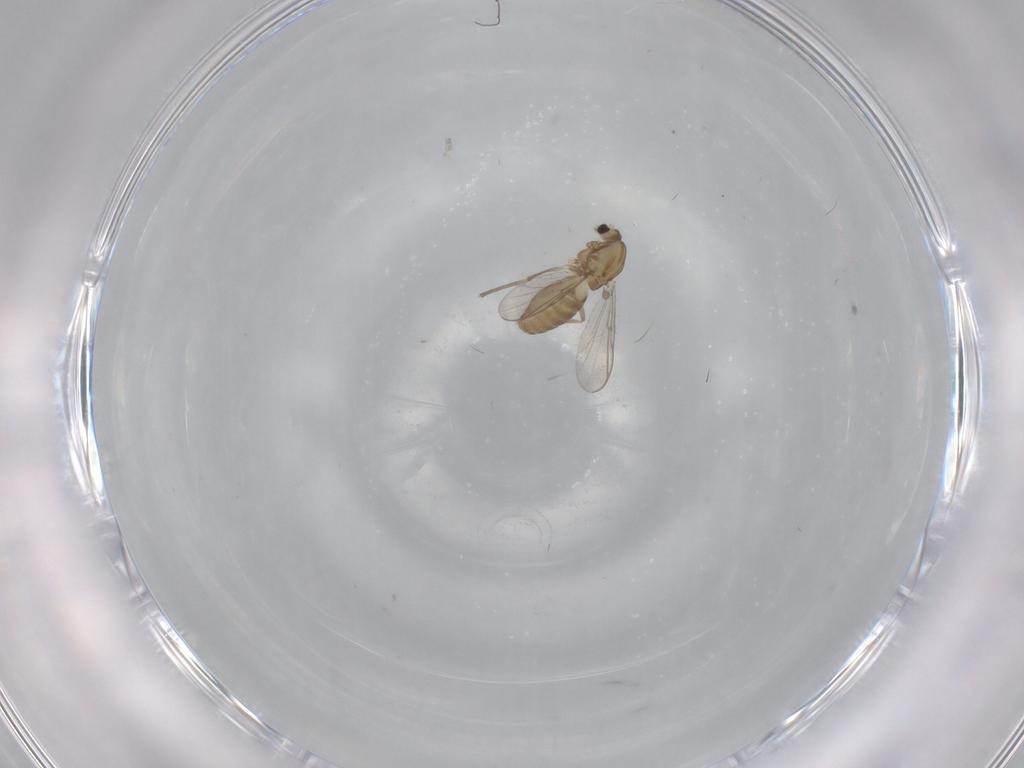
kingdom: Animalia
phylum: Arthropoda
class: Insecta
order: Diptera
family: Chironomidae
